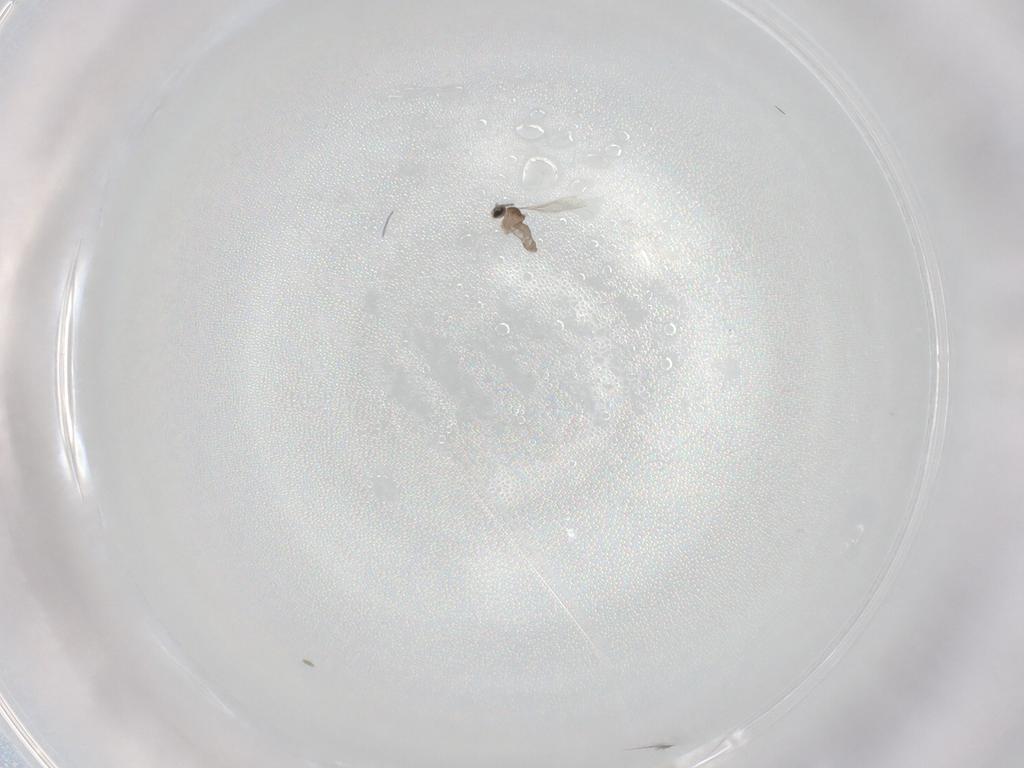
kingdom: Animalia
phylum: Arthropoda
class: Insecta
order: Diptera
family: Cecidomyiidae
